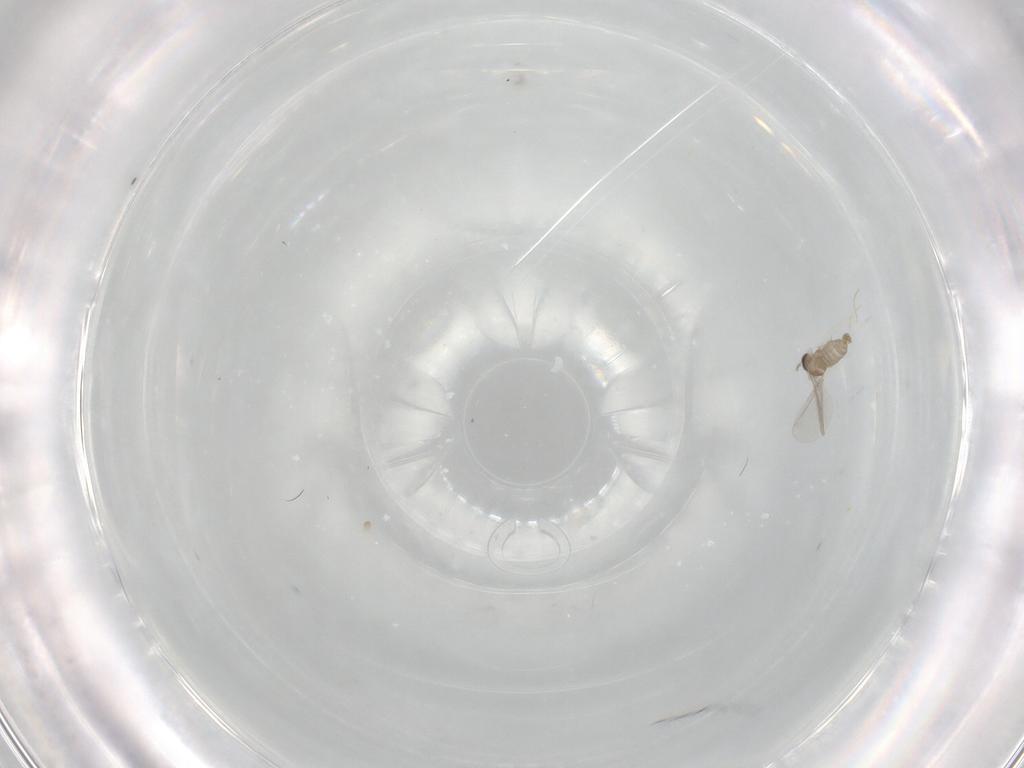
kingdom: Animalia
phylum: Arthropoda
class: Insecta
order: Diptera
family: Cecidomyiidae
